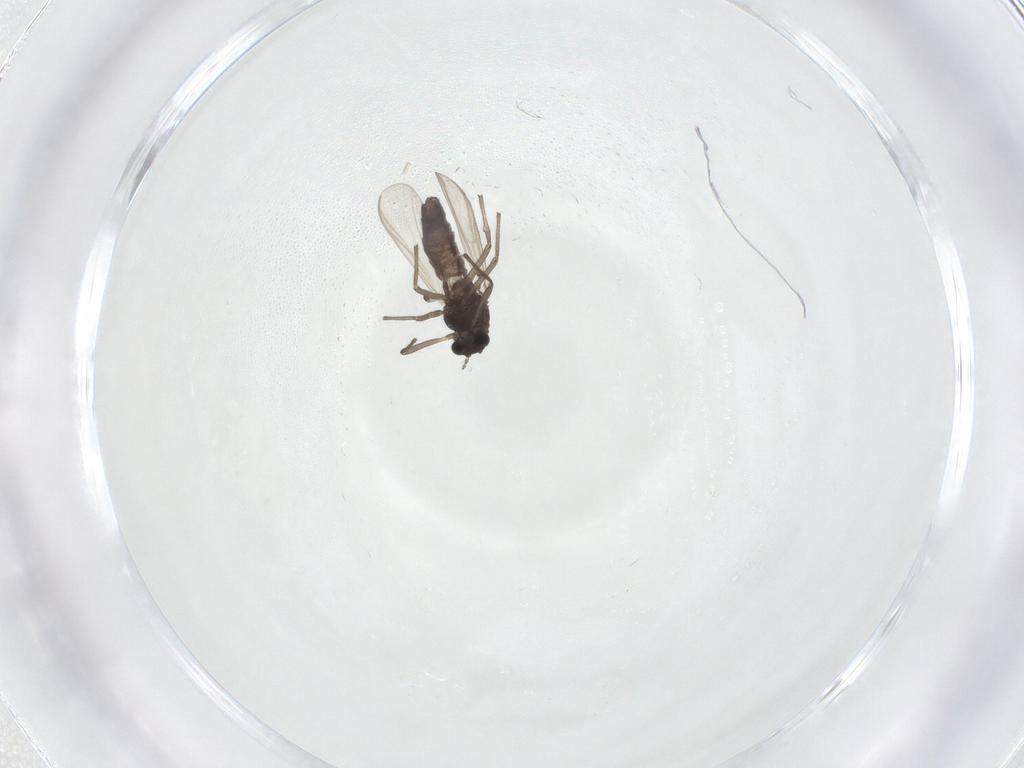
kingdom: Animalia
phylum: Arthropoda
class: Insecta
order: Diptera
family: Chironomidae
